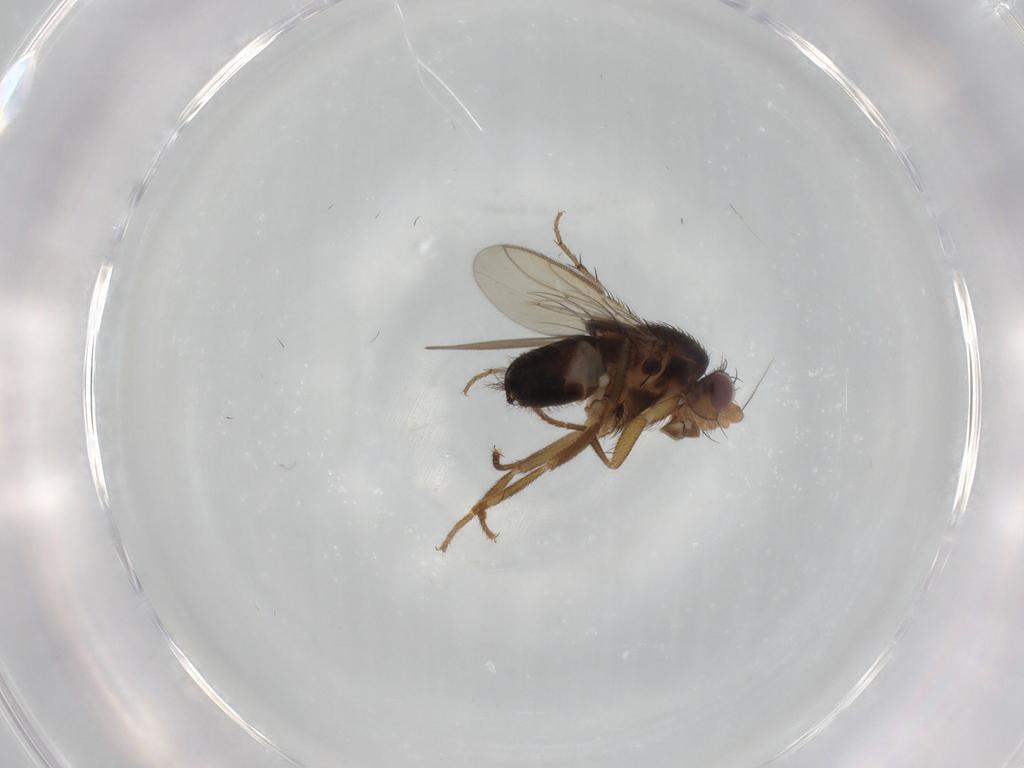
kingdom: Animalia
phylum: Arthropoda
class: Insecta
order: Diptera
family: Sphaeroceridae
